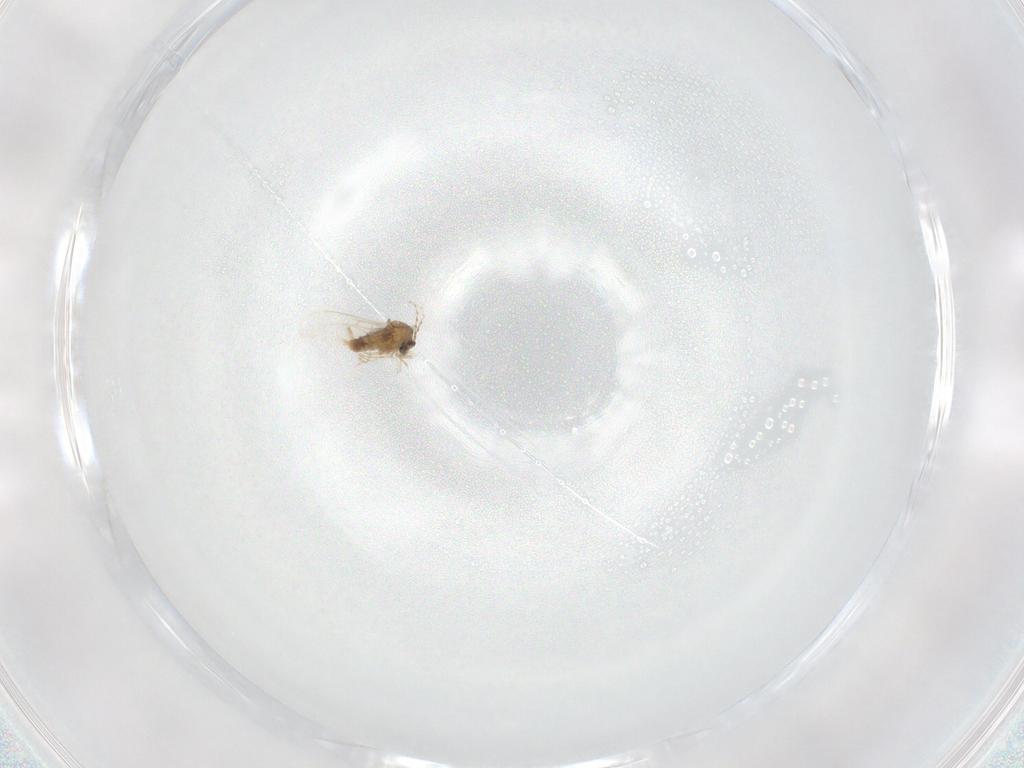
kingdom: Animalia
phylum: Arthropoda
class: Insecta
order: Diptera
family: Cecidomyiidae
